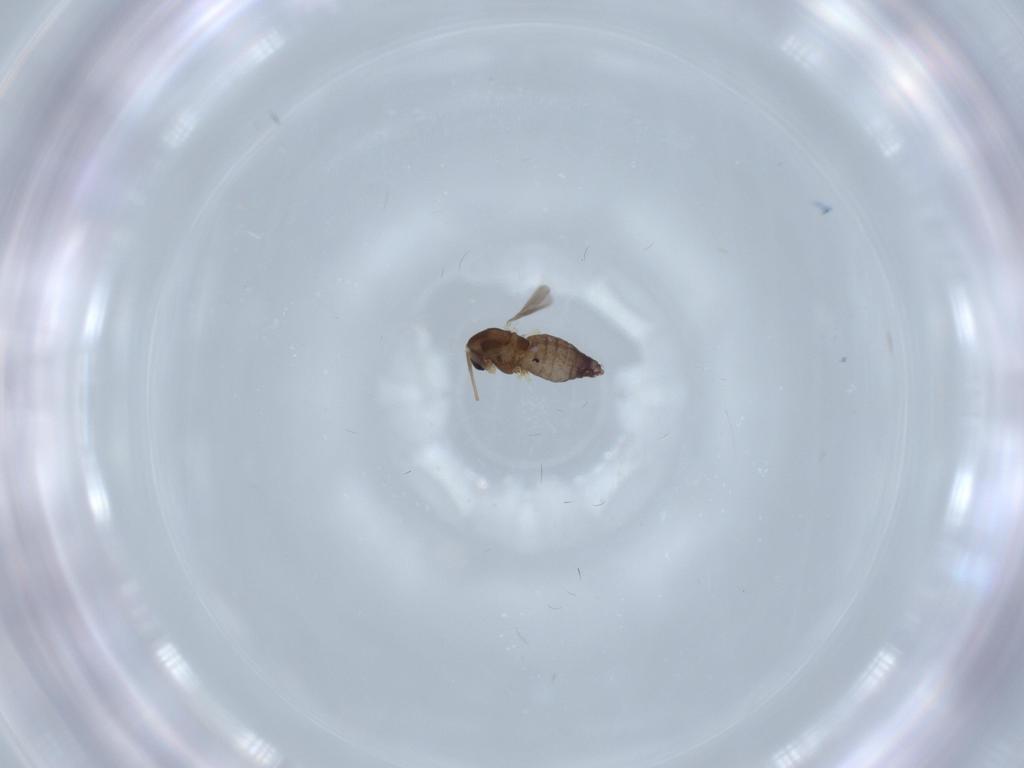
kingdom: Animalia
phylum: Arthropoda
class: Insecta
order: Diptera
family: Chironomidae
